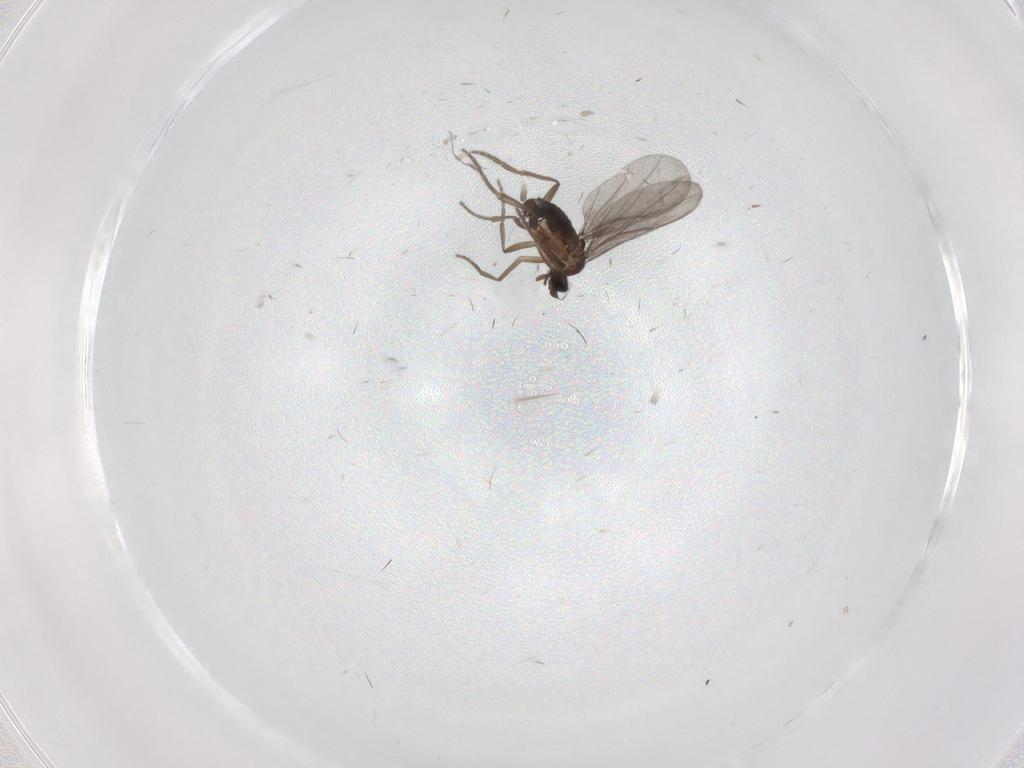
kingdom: Animalia
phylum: Arthropoda
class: Insecta
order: Diptera
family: Phoridae
